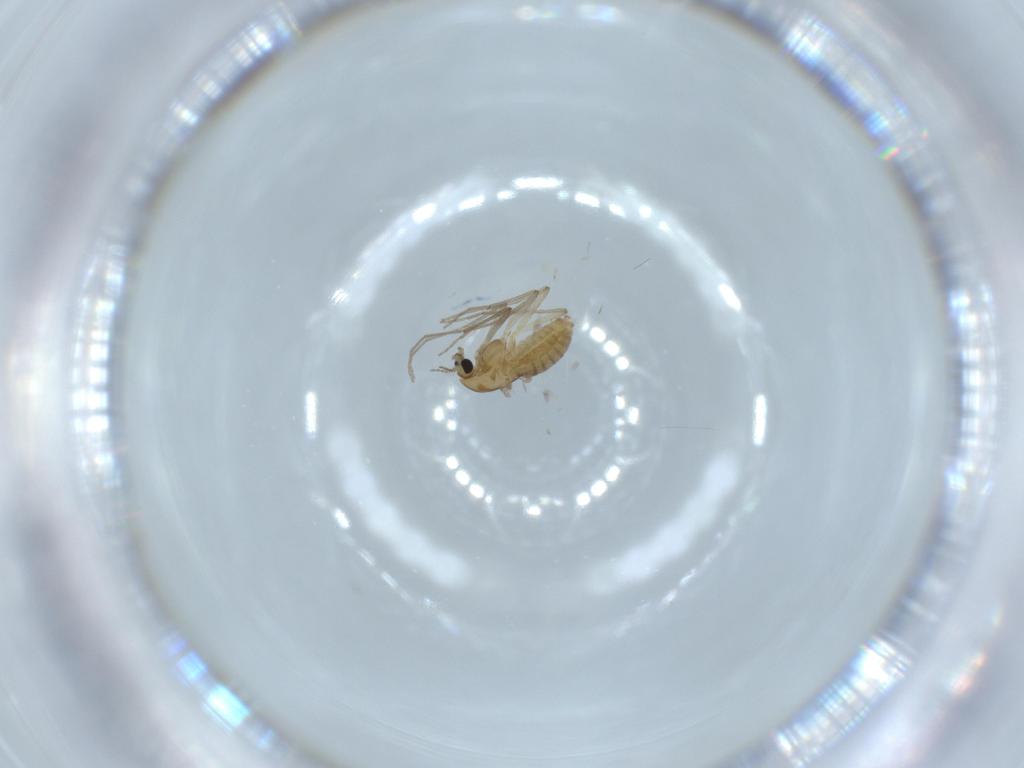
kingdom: Animalia
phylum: Arthropoda
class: Insecta
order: Diptera
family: Chironomidae
